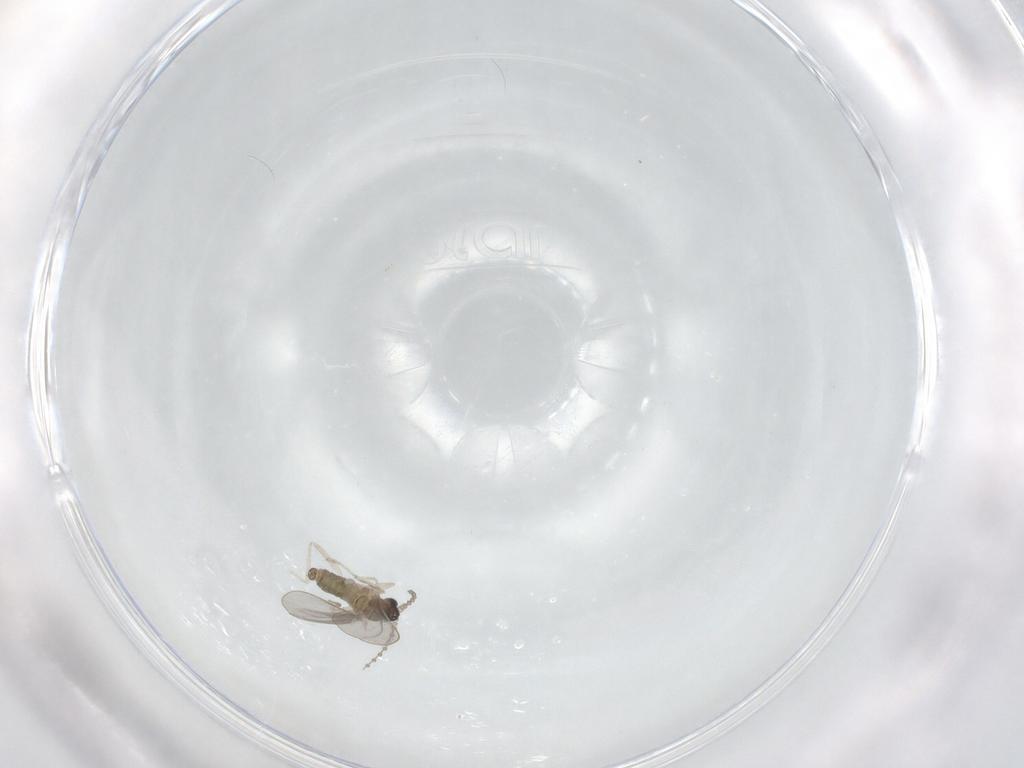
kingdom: Animalia
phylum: Arthropoda
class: Insecta
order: Diptera
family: Cecidomyiidae
